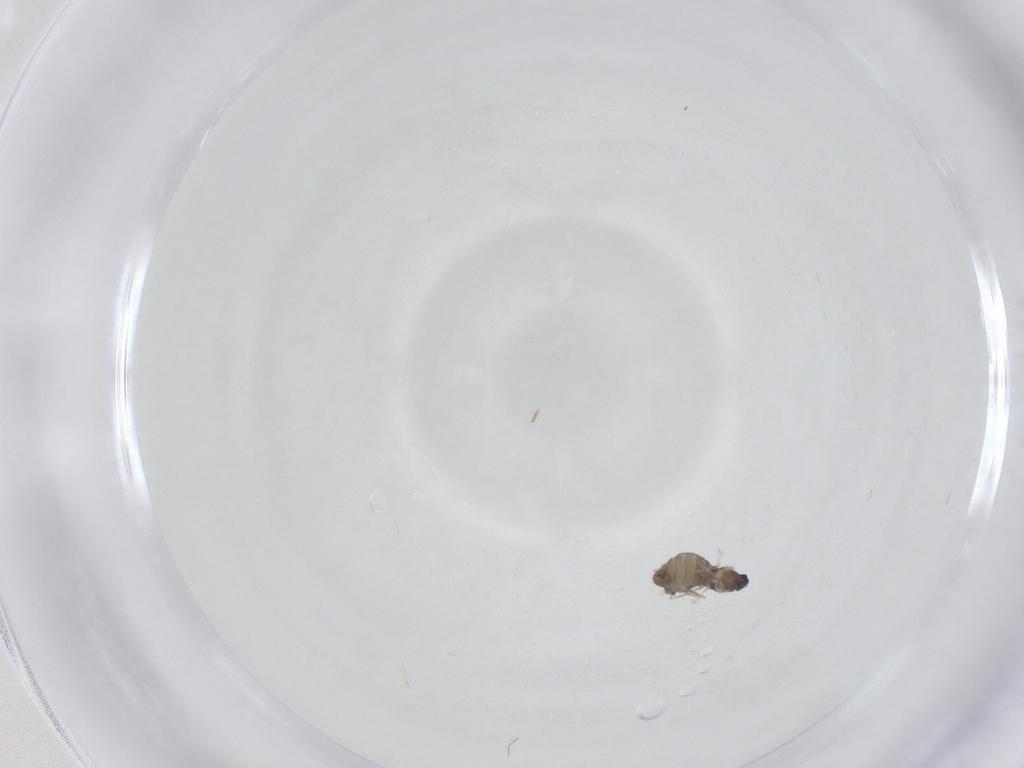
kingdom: Animalia
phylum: Arthropoda
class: Insecta
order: Diptera
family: Cecidomyiidae
